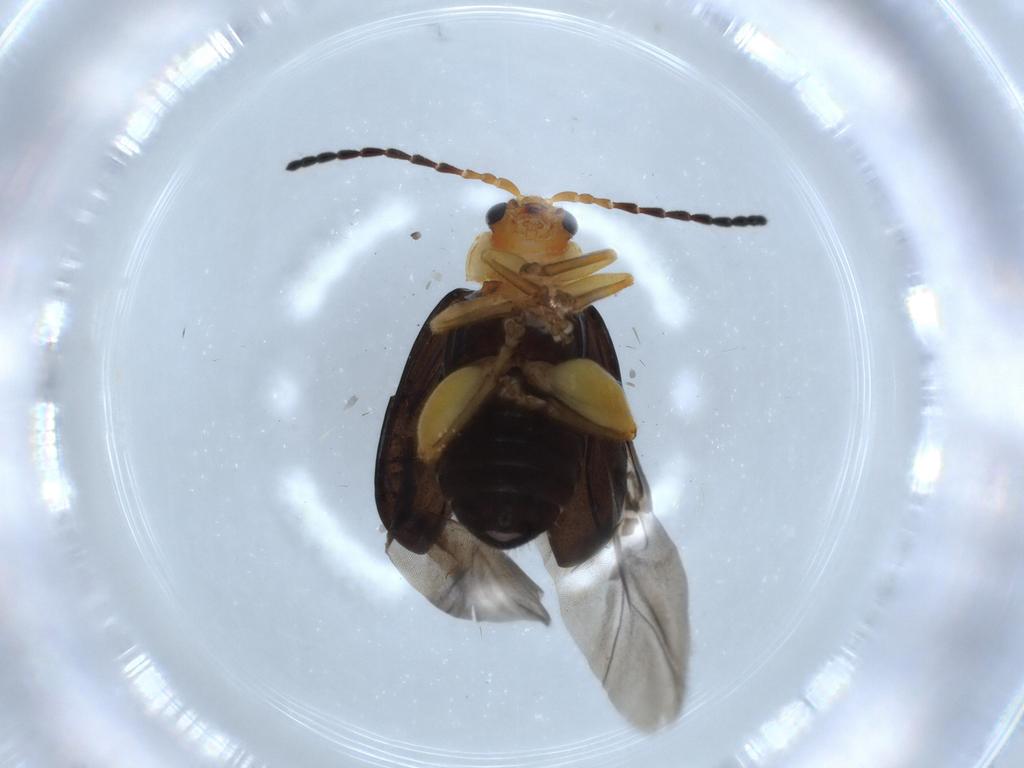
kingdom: Animalia
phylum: Arthropoda
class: Insecta
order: Coleoptera
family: Chrysomelidae
